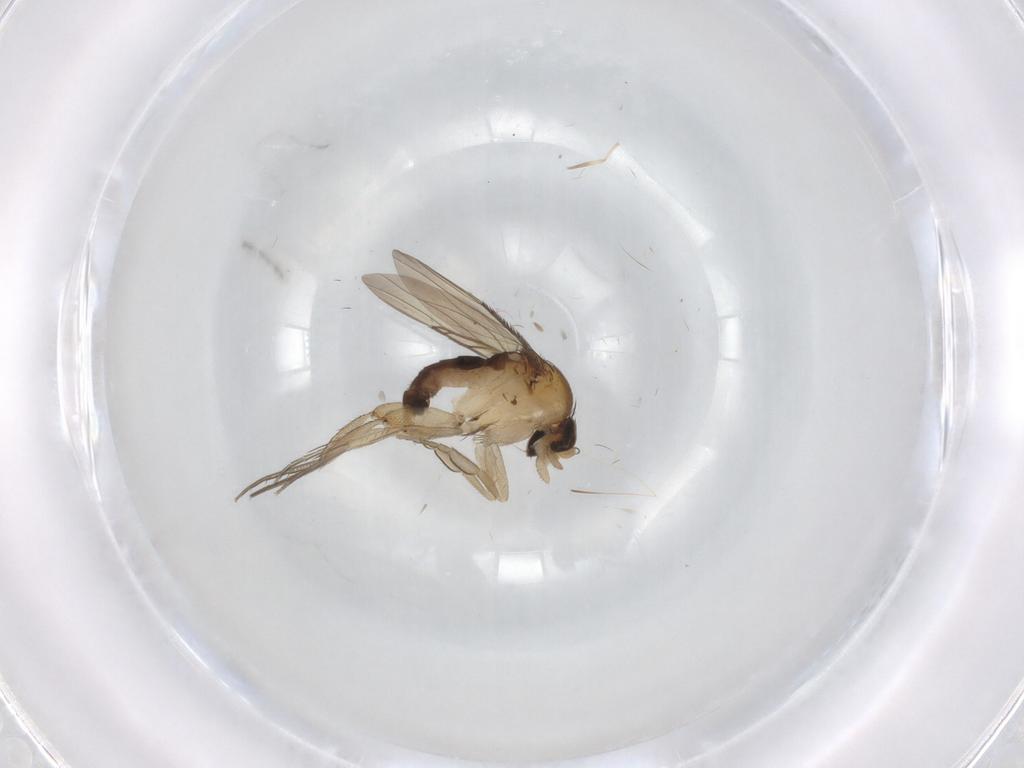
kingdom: Animalia
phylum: Arthropoda
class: Insecta
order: Diptera
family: Phoridae
